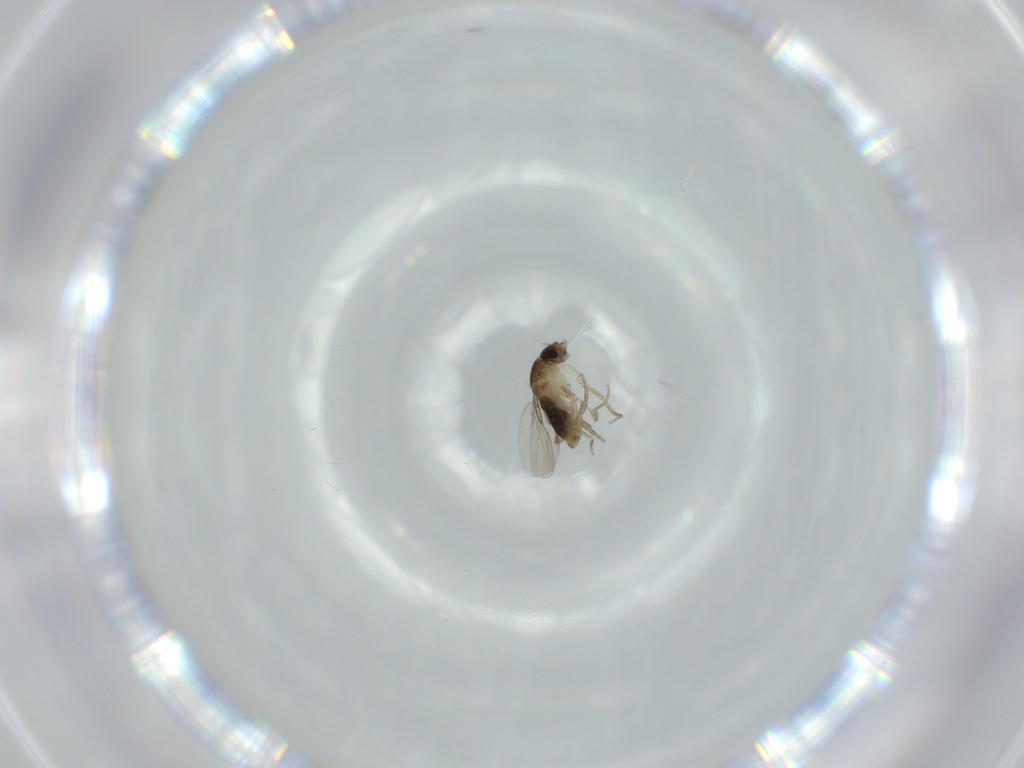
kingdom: Animalia
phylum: Arthropoda
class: Insecta
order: Diptera
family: Phoridae
